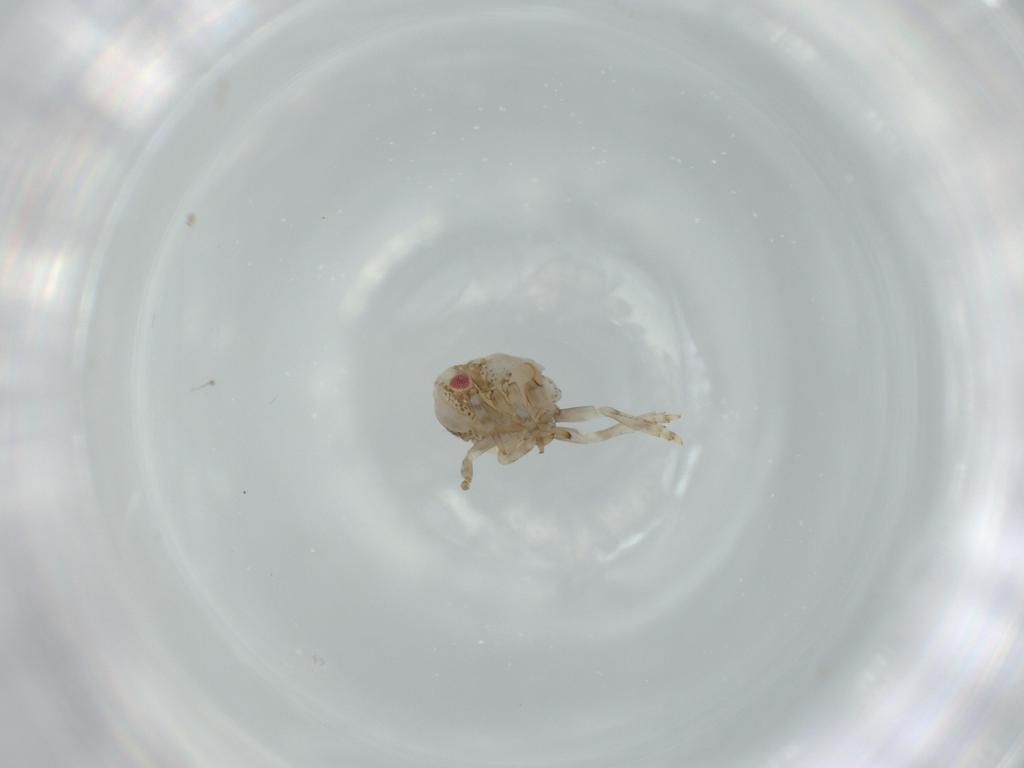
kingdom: Animalia
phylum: Arthropoda
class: Insecta
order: Hemiptera
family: Acanaloniidae
